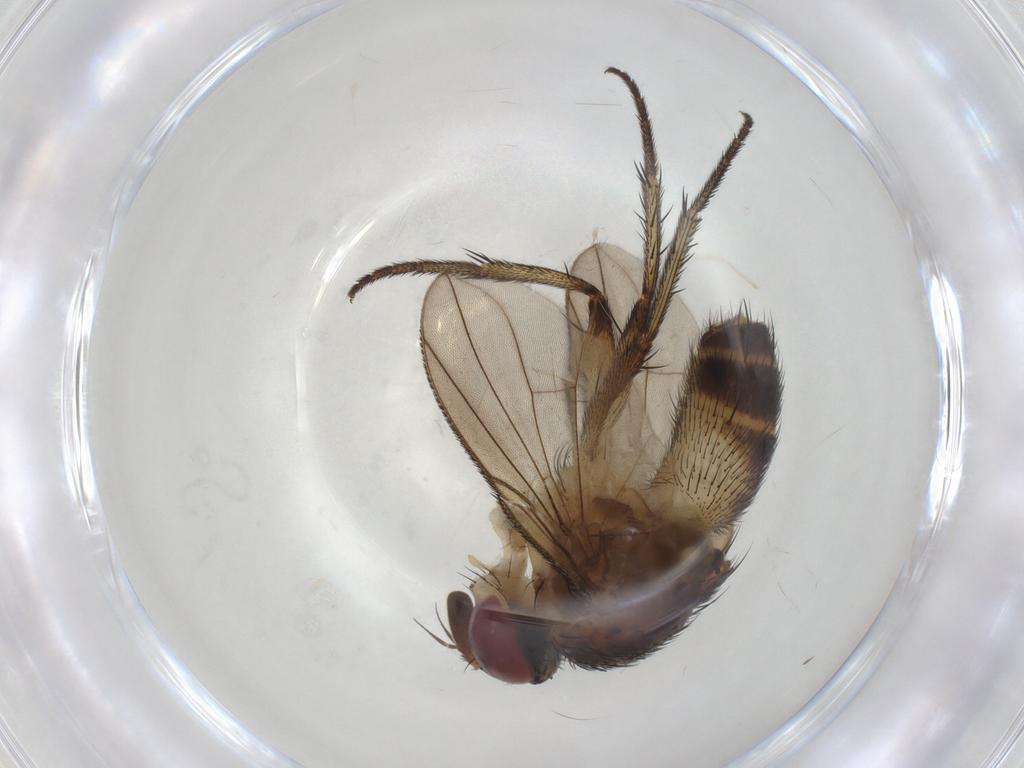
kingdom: Animalia
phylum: Arthropoda
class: Insecta
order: Diptera
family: Tachinidae
